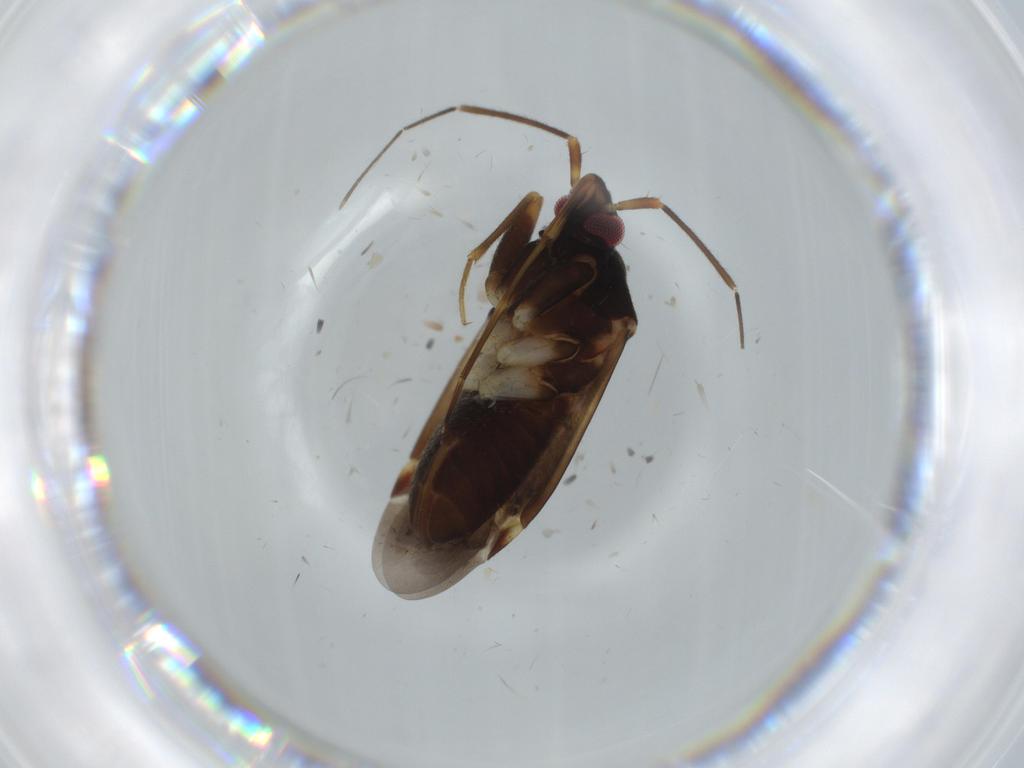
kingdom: Animalia
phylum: Arthropoda
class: Insecta
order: Hemiptera
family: Miridae
